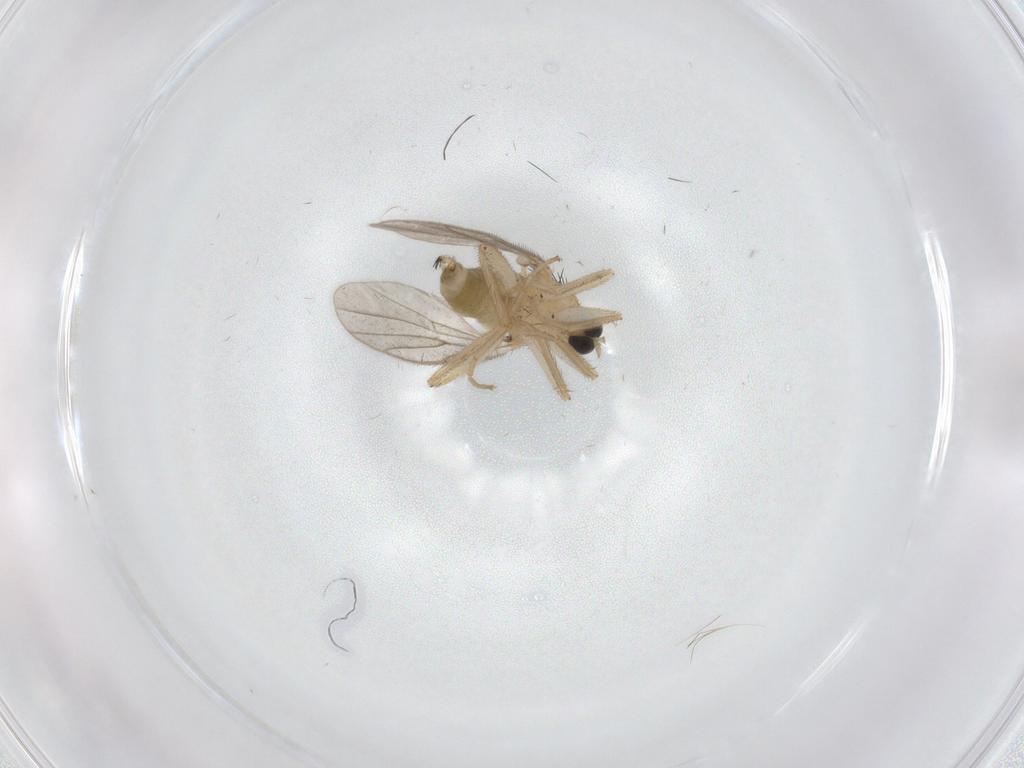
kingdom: Animalia
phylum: Arthropoda
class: Insecta
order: Diptera
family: Hybotidae
